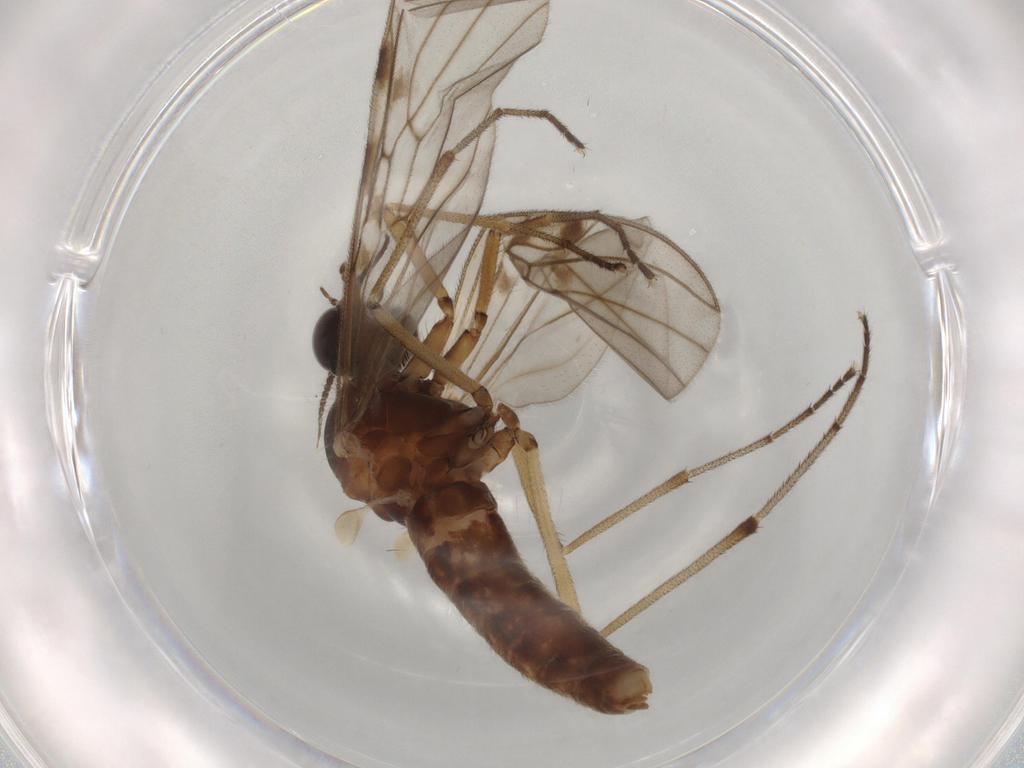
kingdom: Animalia
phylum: Arthropoda
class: Insecta
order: Diptera
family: Anisopodidae
